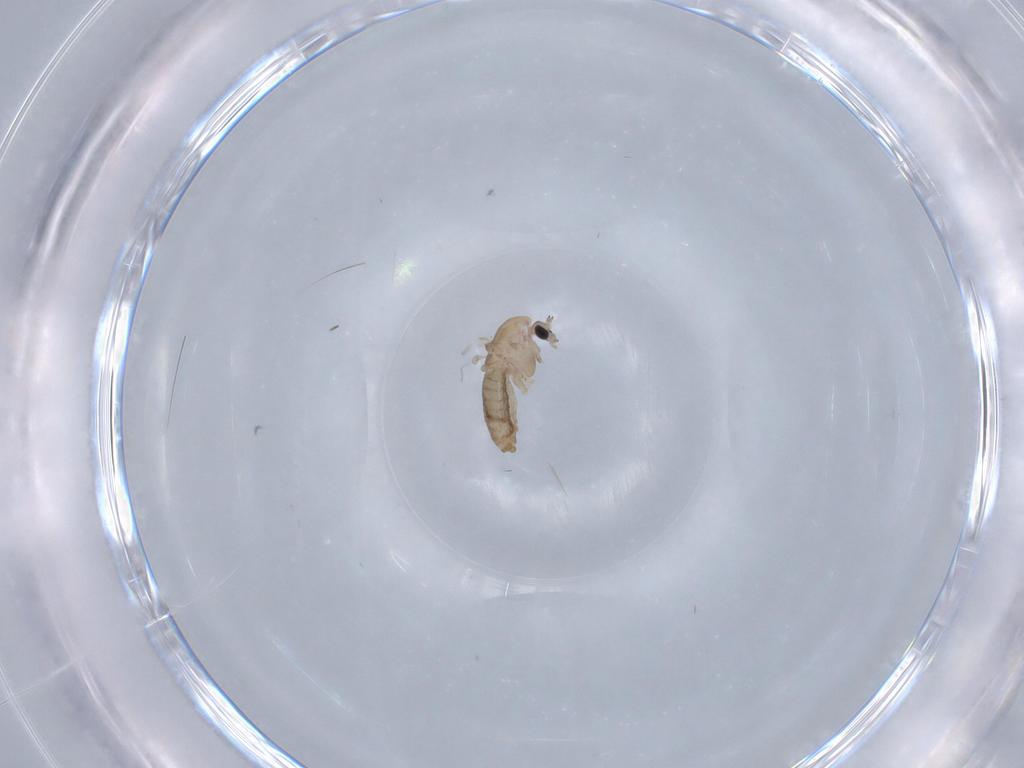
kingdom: Animalia
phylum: Arthropoda
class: Insecta
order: Diptera
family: Chironomidae
